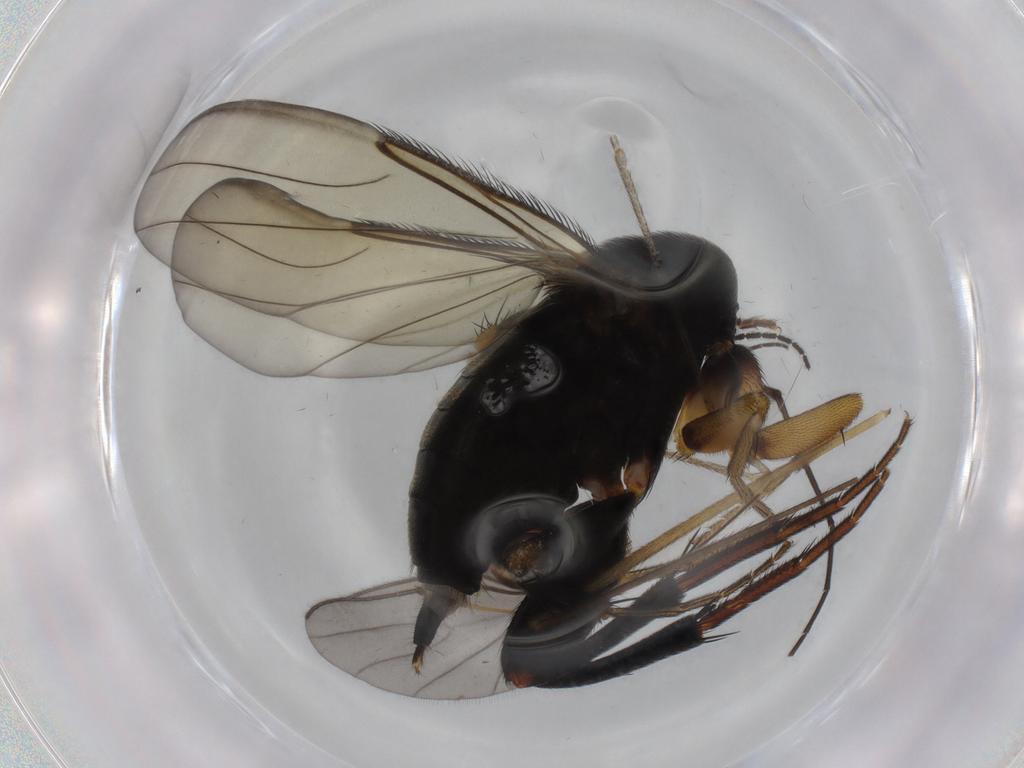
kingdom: Animalia
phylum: Arthropoda
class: Insecta
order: Diptera
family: Phoridae
